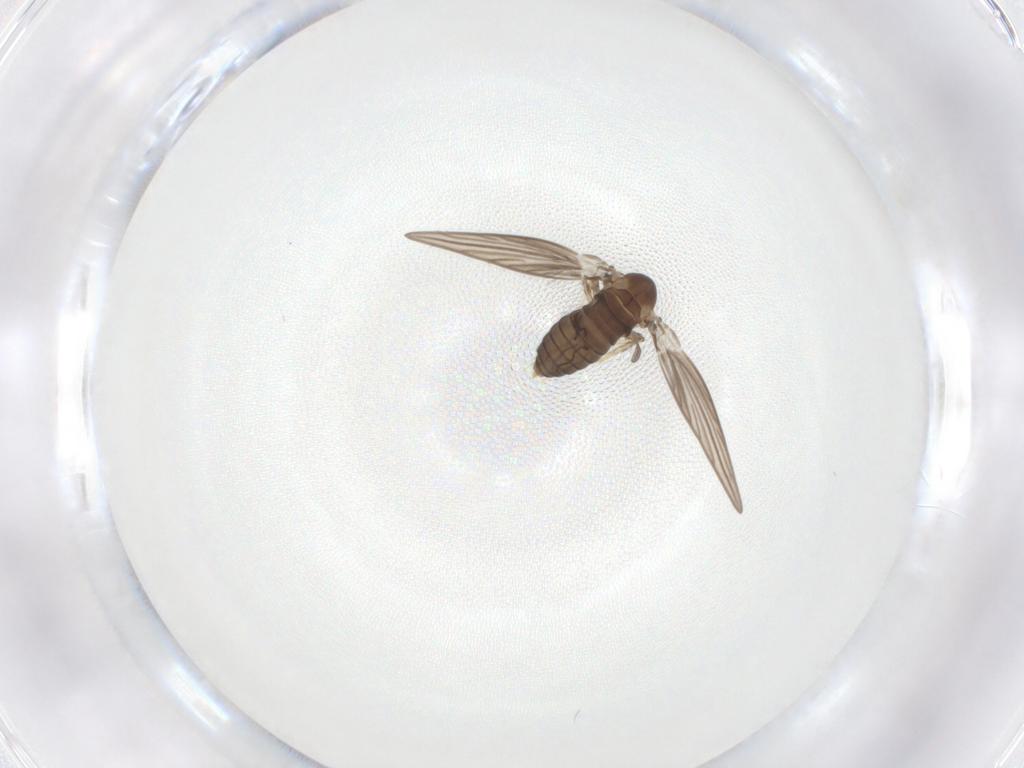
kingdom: Animalia
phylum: Arthropoda
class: Insecta
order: Diptera
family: Psychodidae
